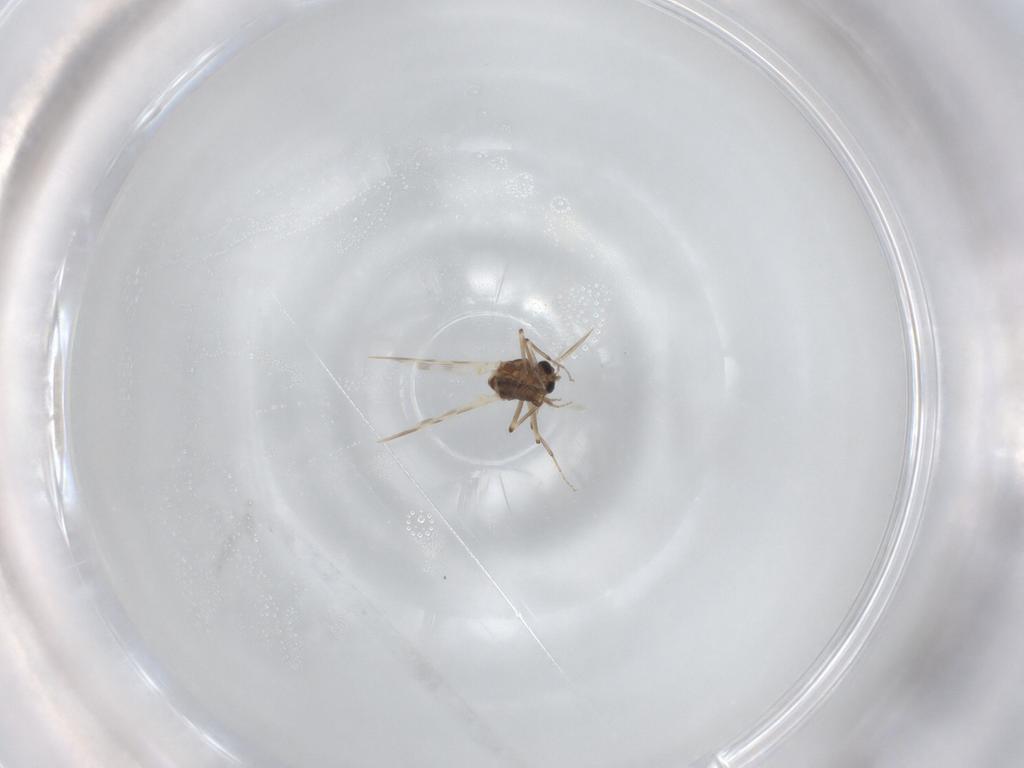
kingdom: Animalia
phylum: Arthropoda
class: Insecta
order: Diptera
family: Ceratopogonidae
